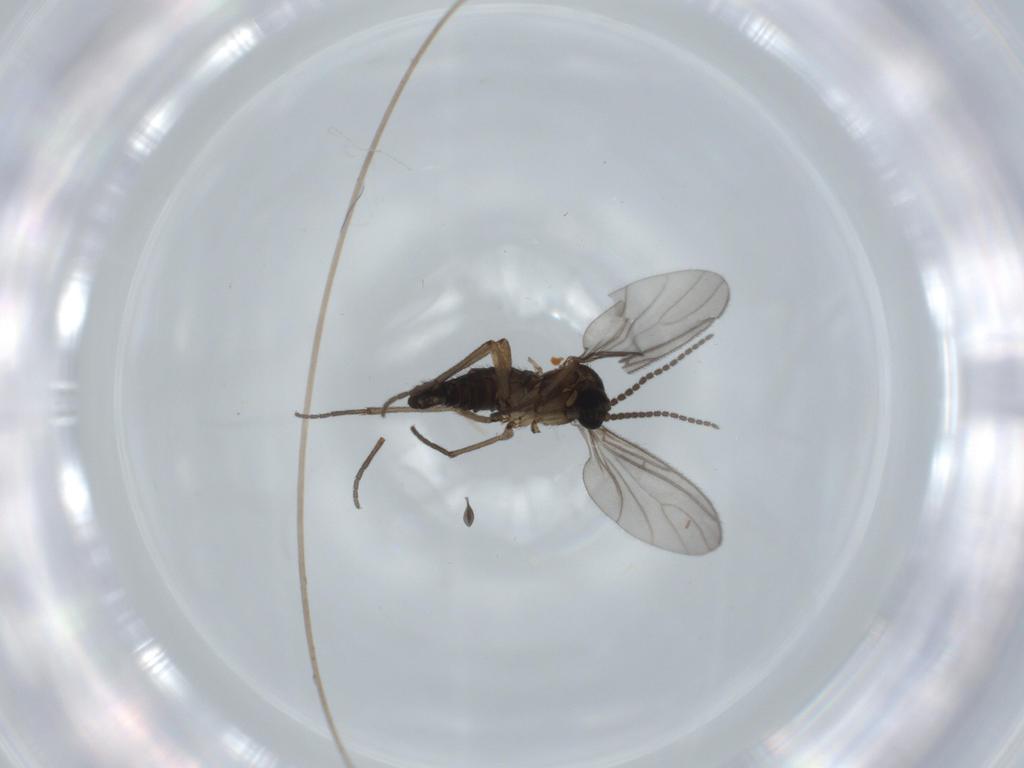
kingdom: Animalia
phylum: Arthropoda
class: Insecta
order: Diptera
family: Sciaridae
